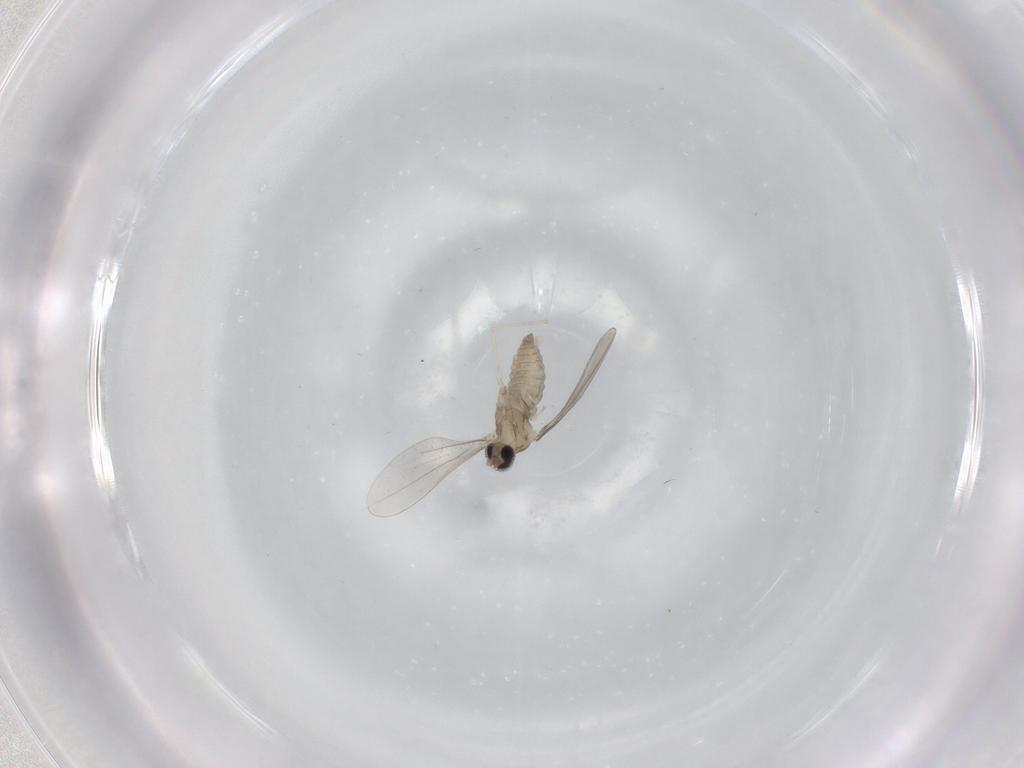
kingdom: Animalia
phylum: Arthropoda
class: Insecta
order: Diptera
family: Cecidomyiidae
